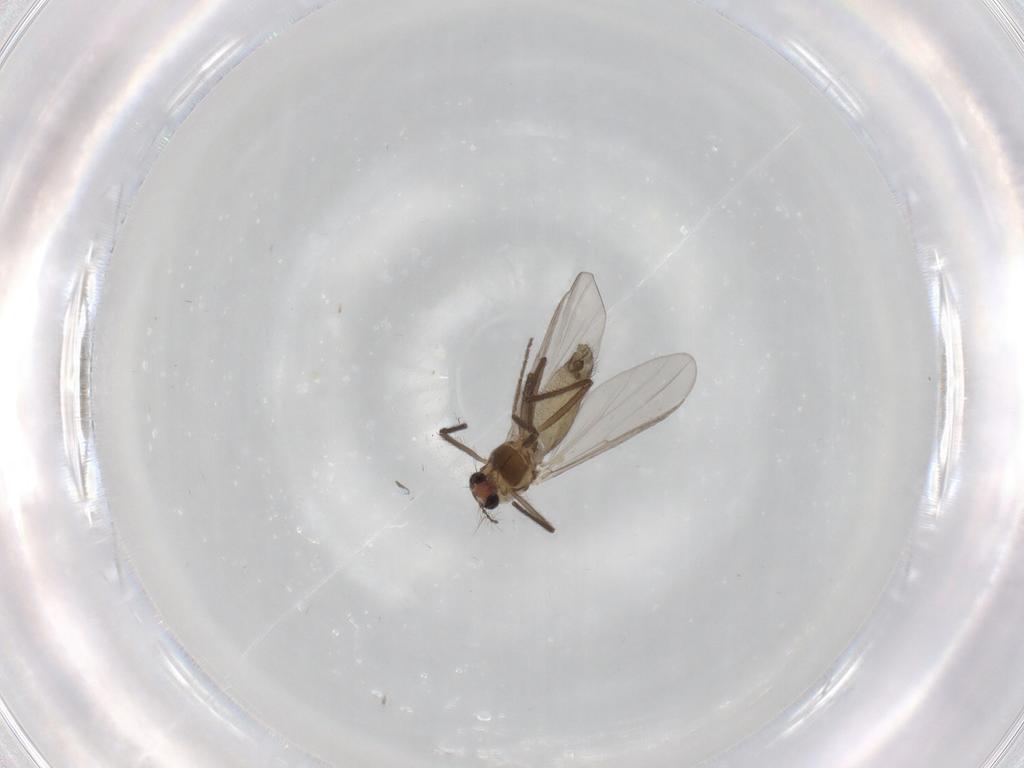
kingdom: Animalia
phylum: Arthropoda
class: Insecta
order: Diptera
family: Chironomidae
